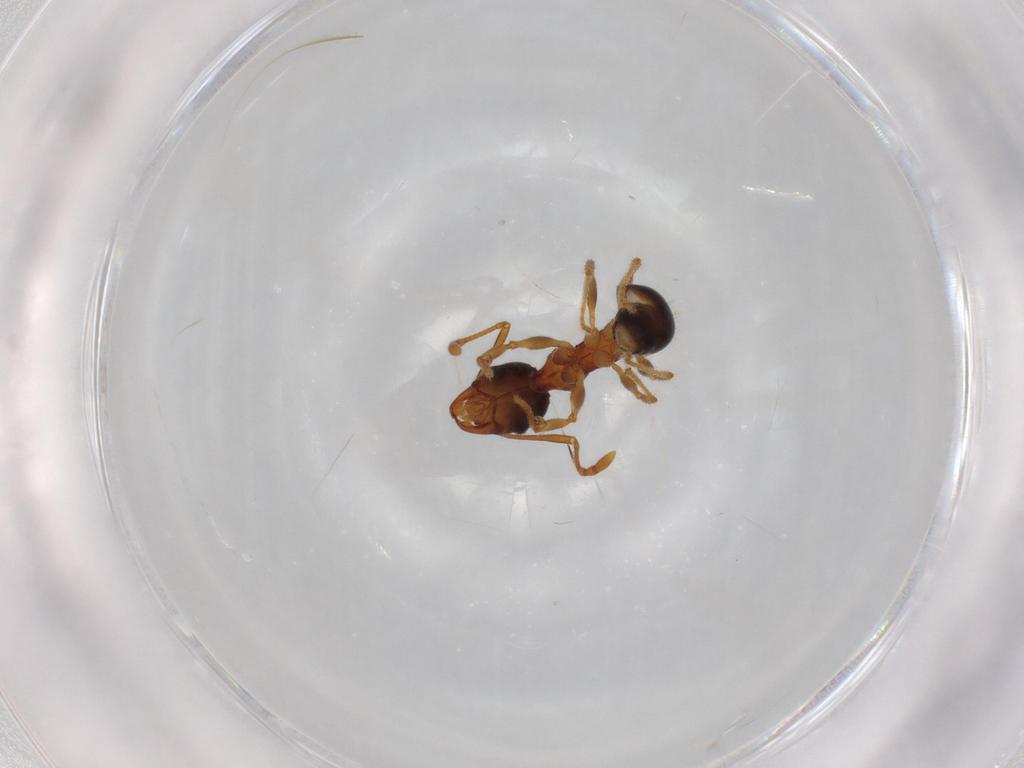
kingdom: Animalia
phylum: Arthropoda
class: Insecta
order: Hymenoptera
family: Formicidae
